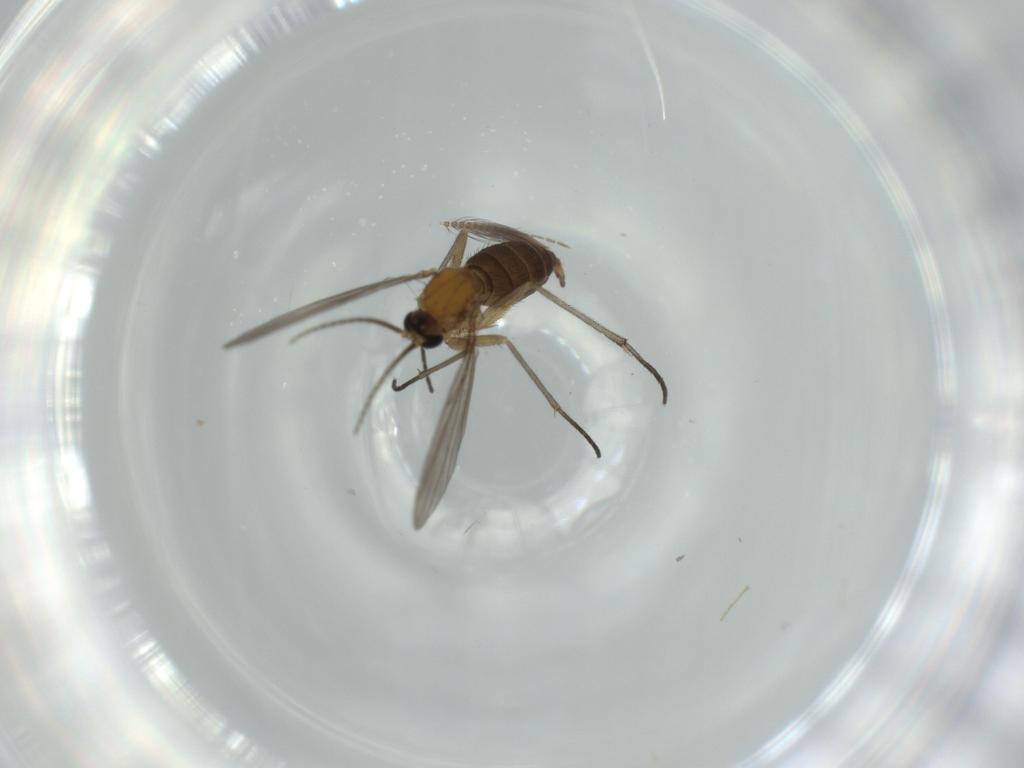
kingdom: Animalia
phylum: Arthropoda
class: Insecta
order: Diptera
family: Sciaridae
